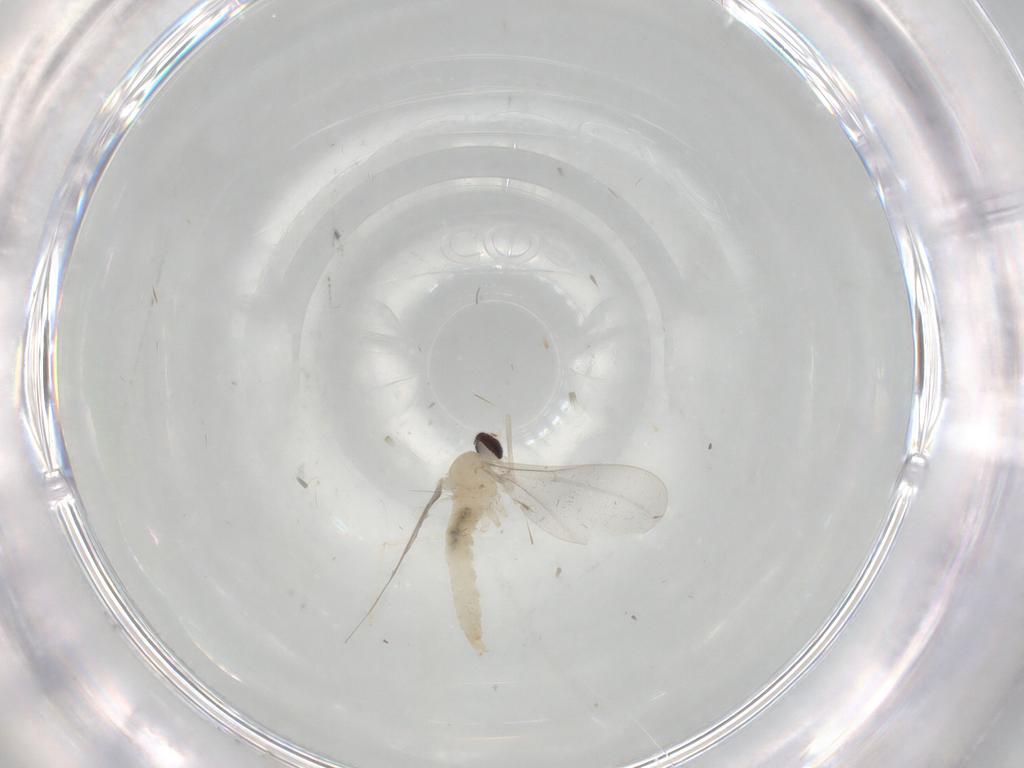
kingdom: Animalia
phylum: Arthropoda
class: Insecta
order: Diptera
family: Cecidomyiidae
